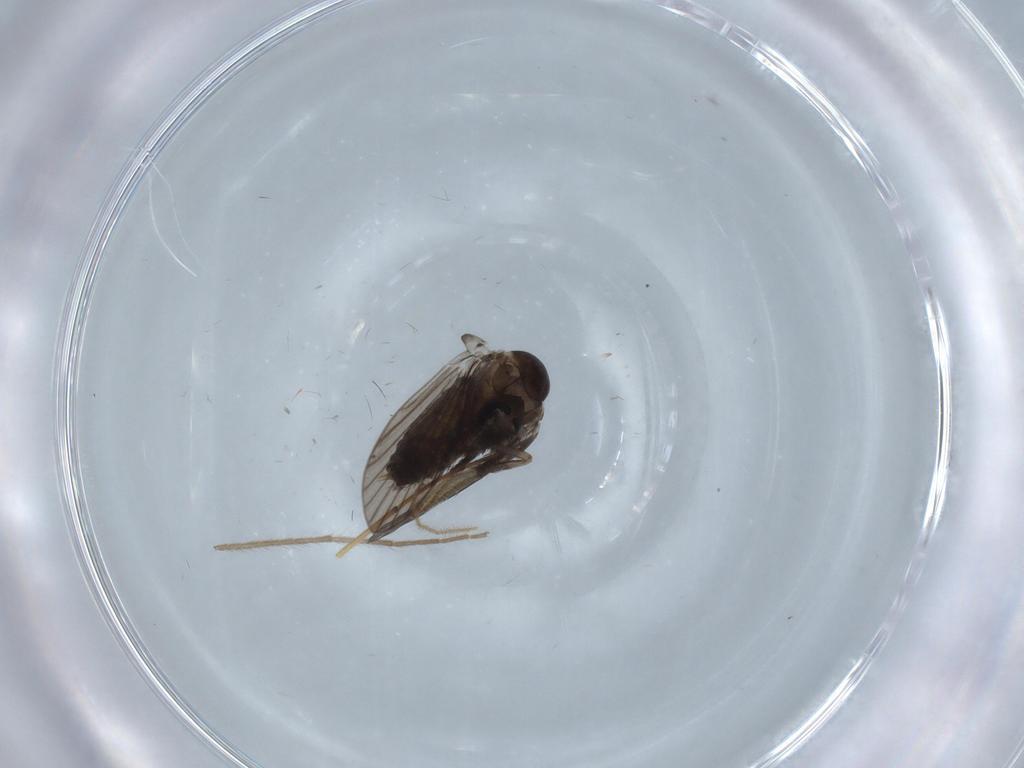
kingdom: Animalia
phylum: Arthropoda
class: Insecta
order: Diptera
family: Psychodidae
